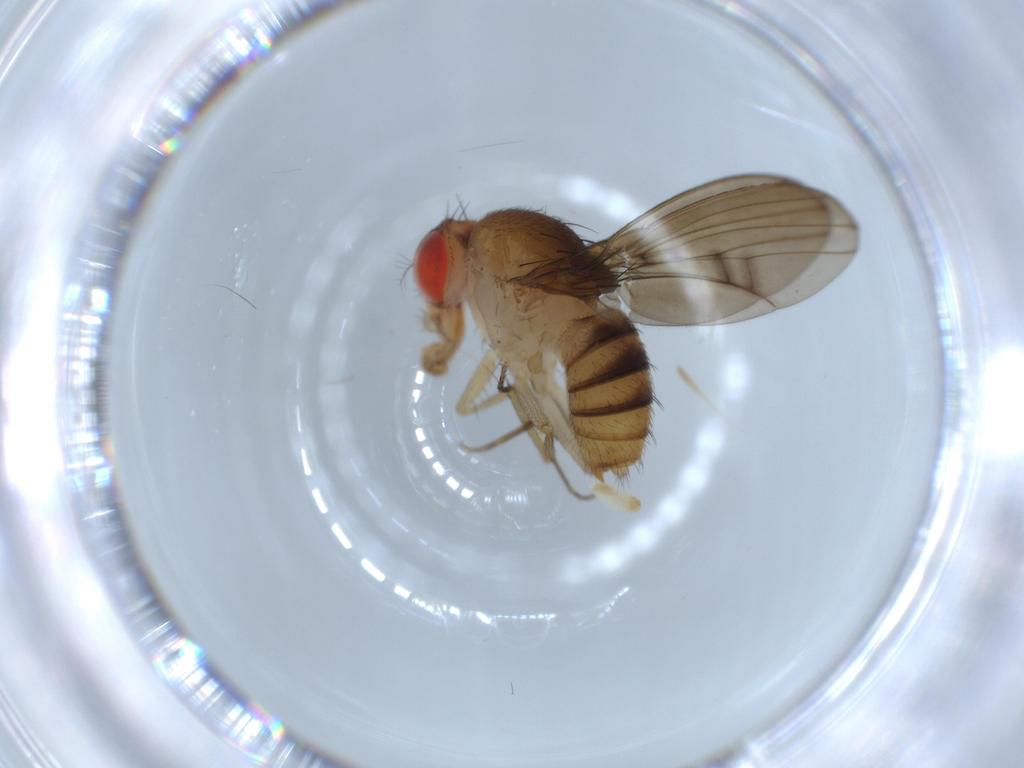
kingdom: Animalia
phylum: Arthropoda
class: Insecta
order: Diptera
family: Drosophilidae
